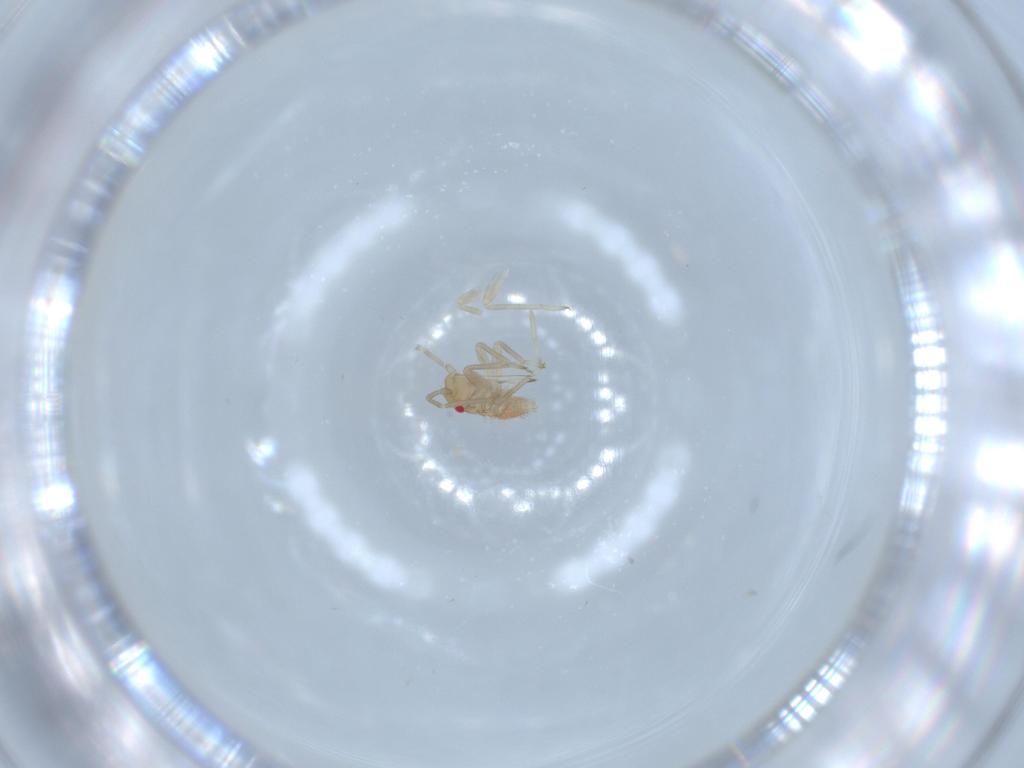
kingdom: Animalia
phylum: Arthropoda
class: Insecta
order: Hemiptera
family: Miridae
